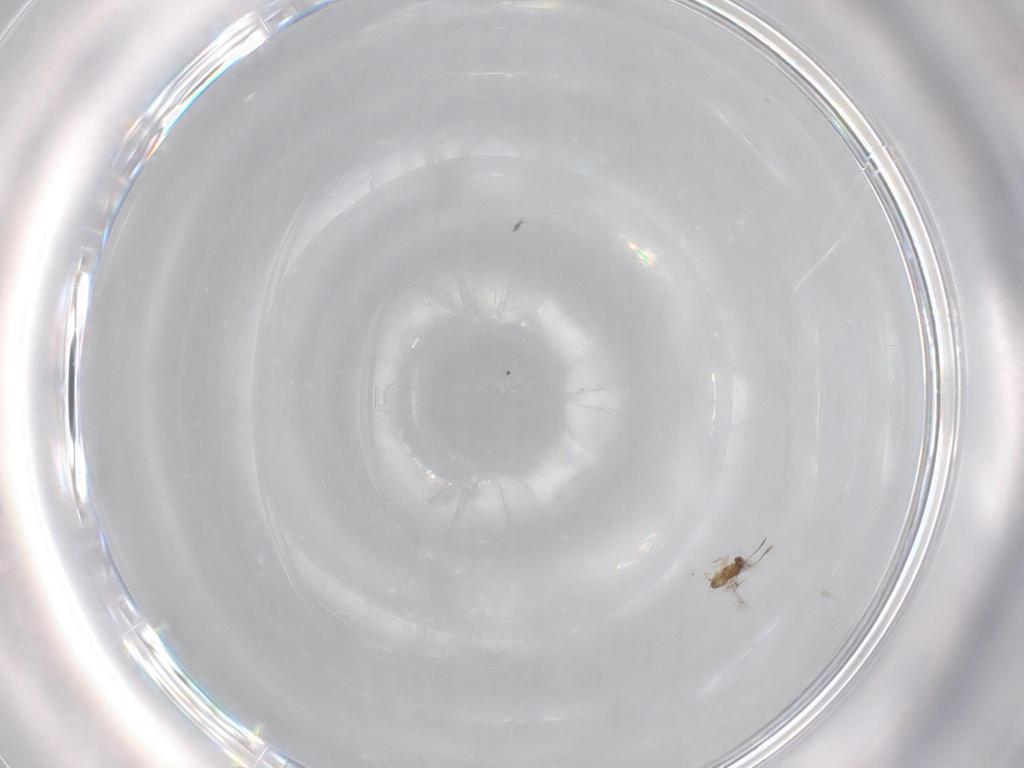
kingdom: Animalia
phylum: Arthropoda
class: Insecta
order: Hymenoptera
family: Mymaridae
